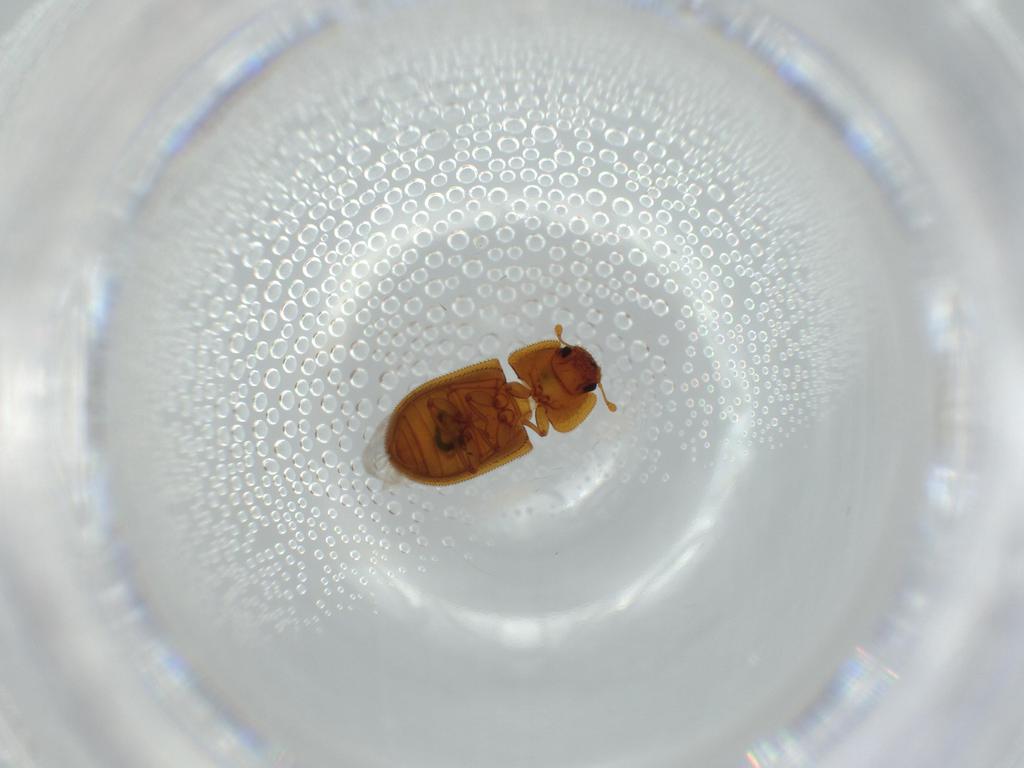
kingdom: Animalia
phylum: Arthropoda
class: Insecta
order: Coleoptera
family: Zopheridae
